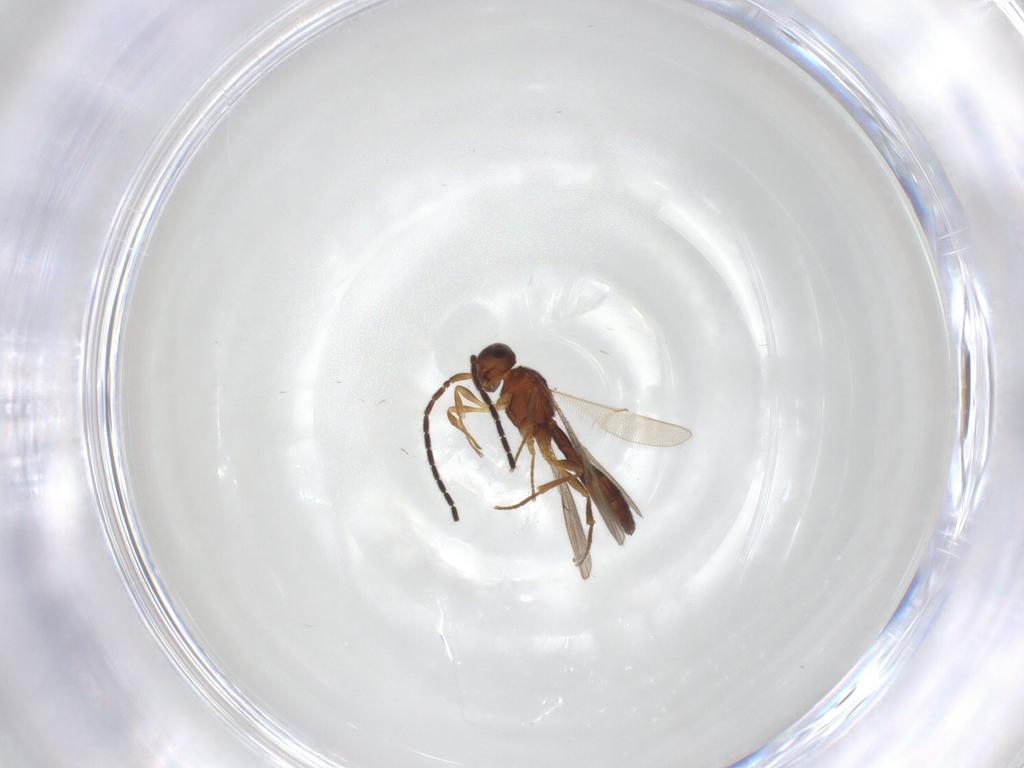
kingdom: Animalia
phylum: Arthropoda
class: Insecta
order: Hymenoptera
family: Scelionidae
